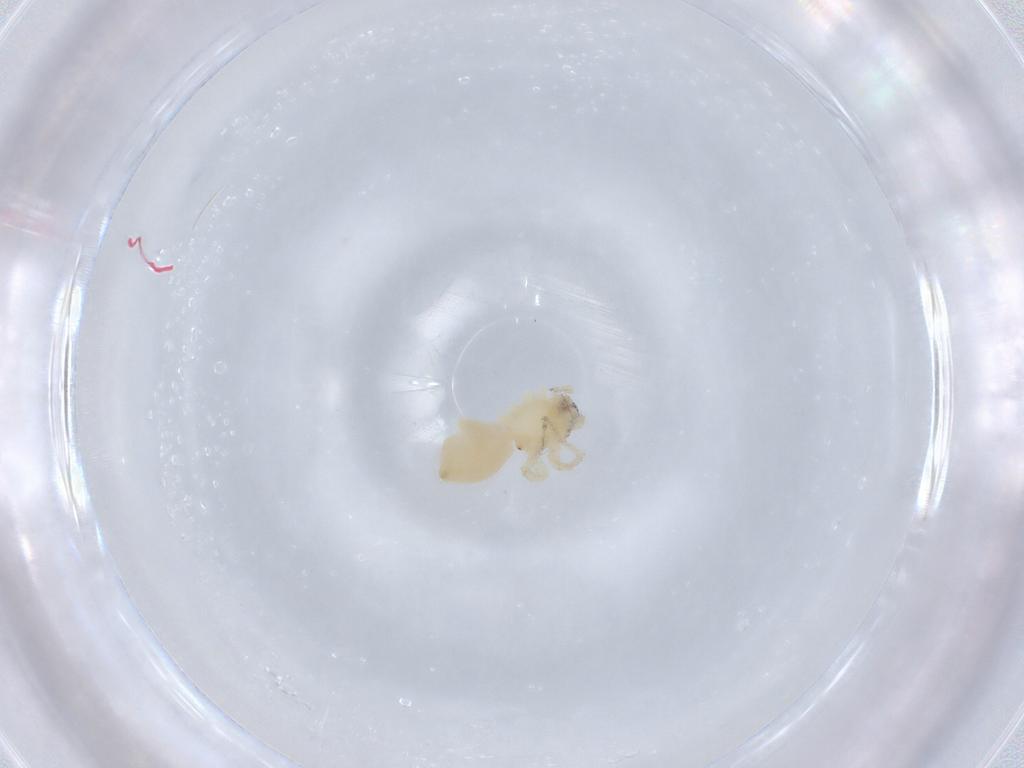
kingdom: Animalia
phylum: Arthropoda
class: Arachnida
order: Araneae
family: Anyphaenidae
